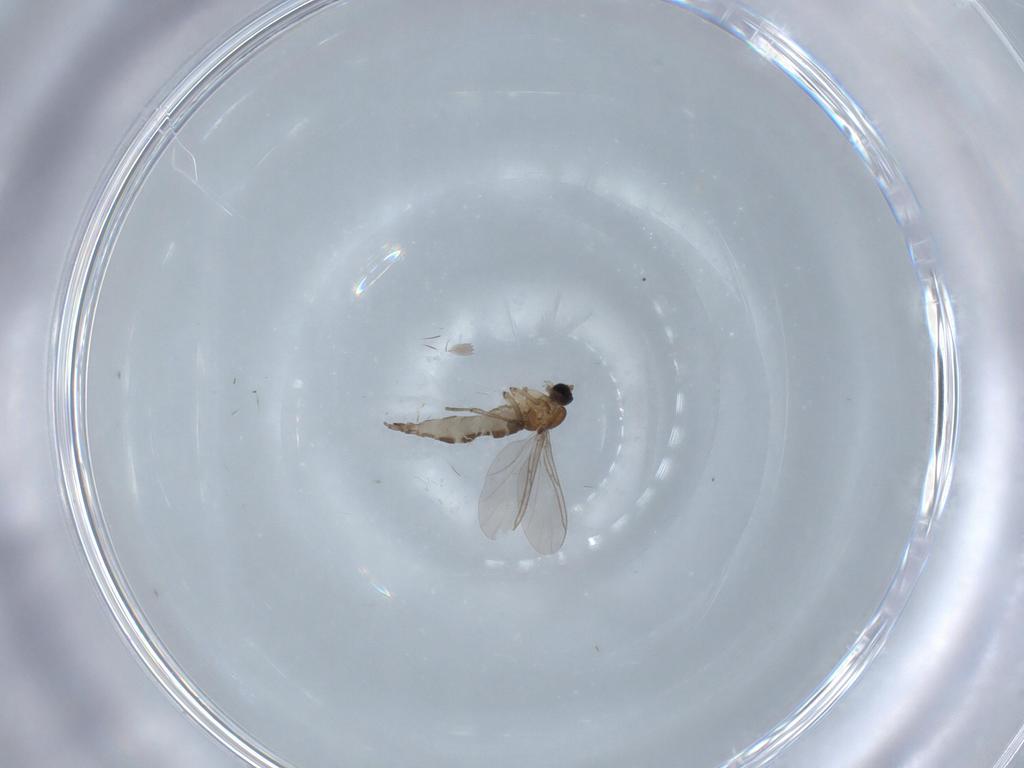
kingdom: Animalia
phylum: Arthropoda
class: Insecta
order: Diptera
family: Sciaridae
